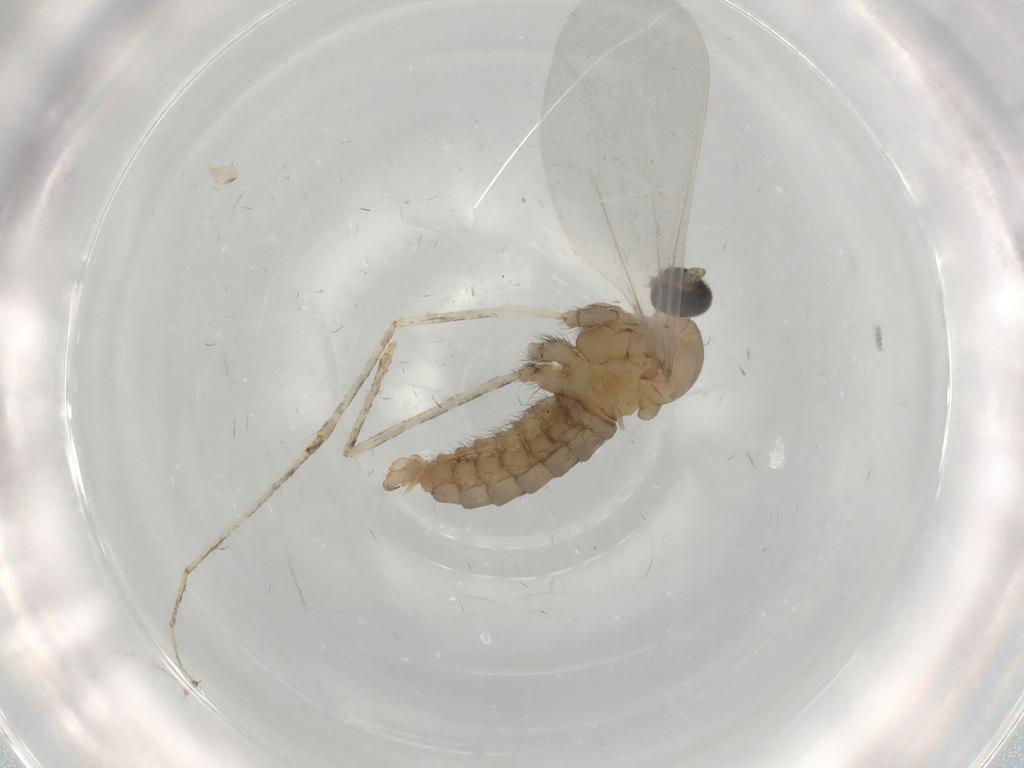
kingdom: Animalia
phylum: Arthropoda
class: Insecta
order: Diptera
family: Cecidomyiidae
